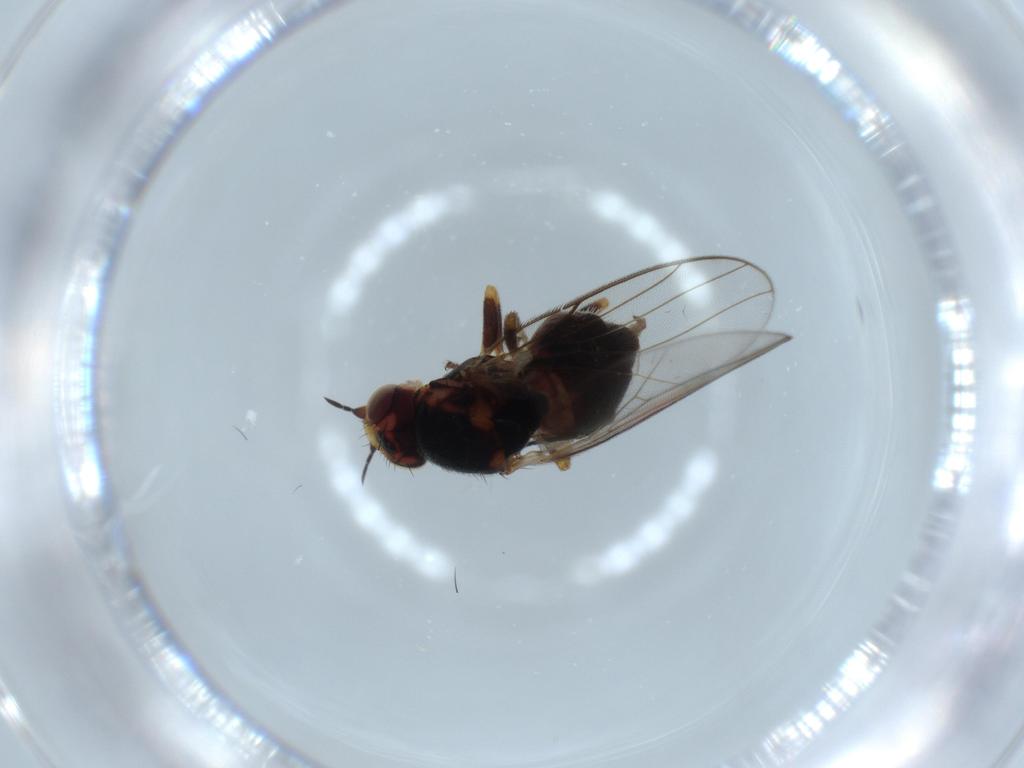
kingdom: Animalia
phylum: Arthropoda
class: Insecta
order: Diptera
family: Chloropidae
